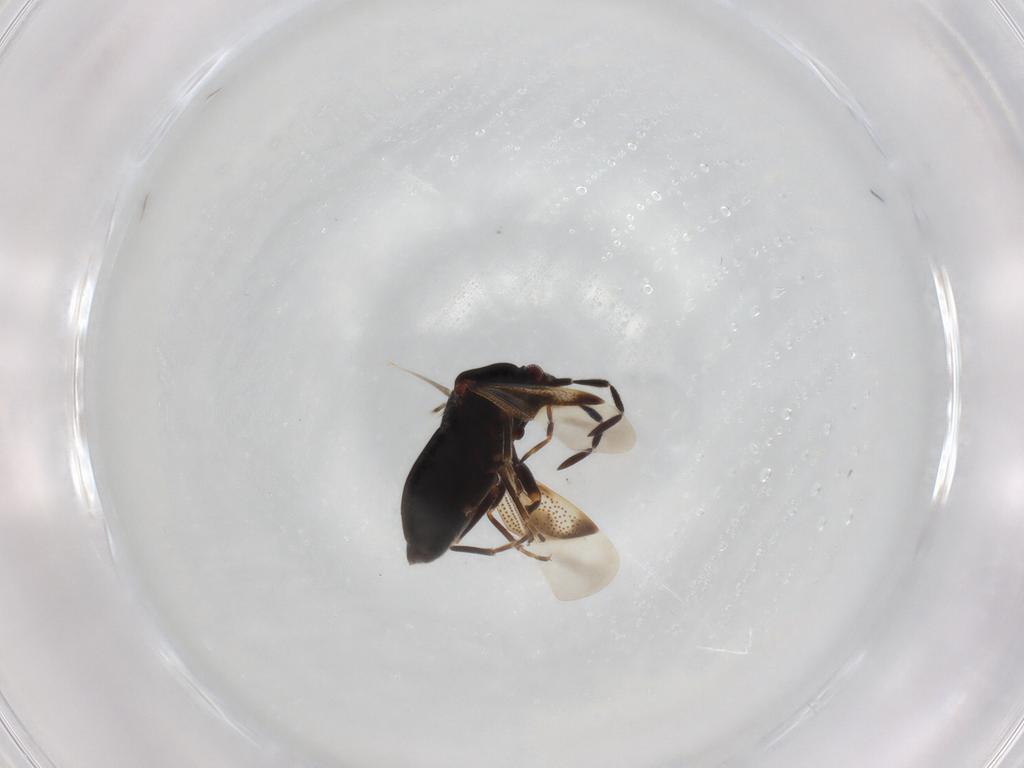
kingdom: Animalia
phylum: Arthropoda
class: Insecta
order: Hemiptera
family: Rhyparochromidae
